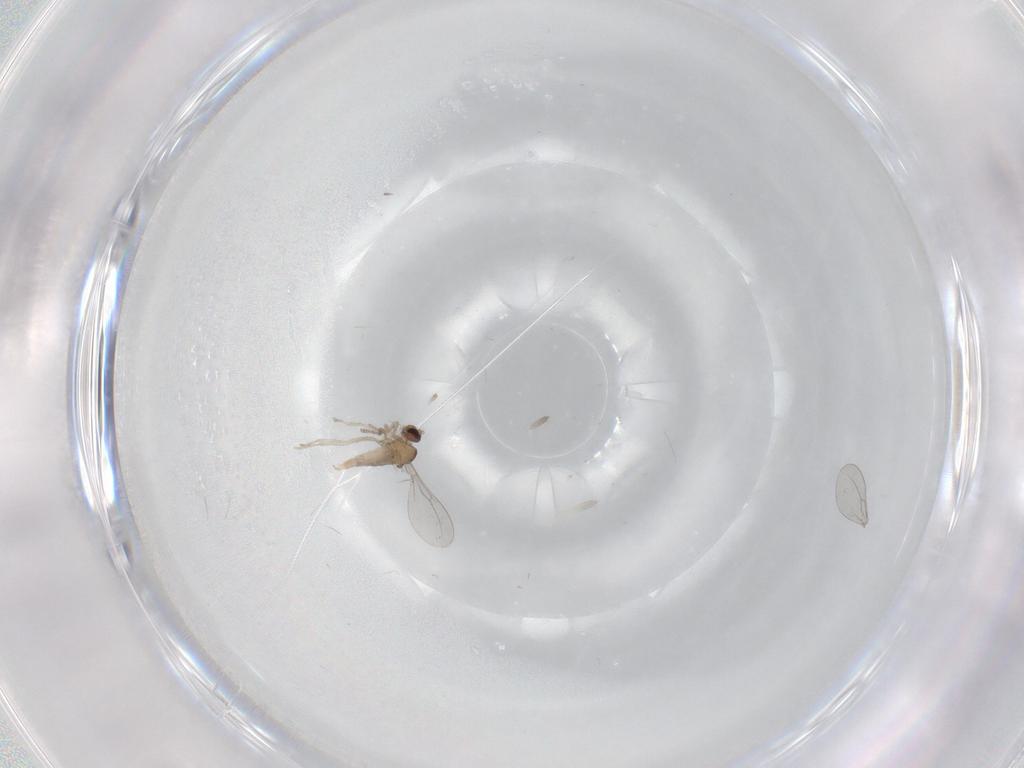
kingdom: Animalia
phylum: Arthropoda
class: Insecta
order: Diptera
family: Cecidomyiidae
